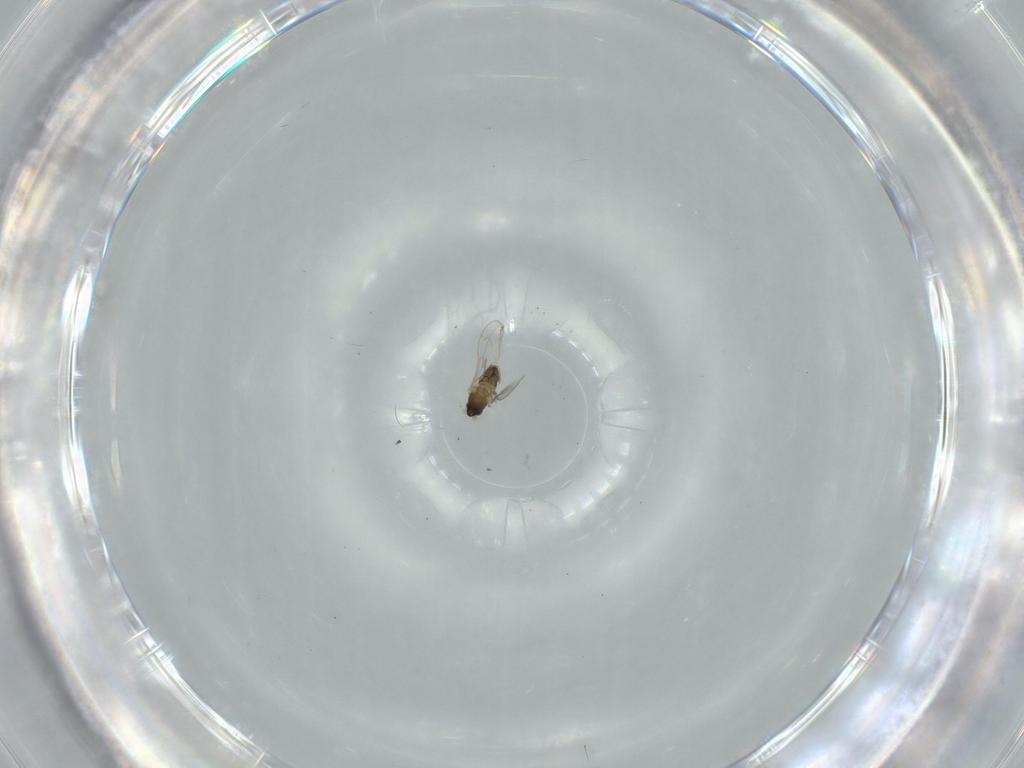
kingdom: Animalia
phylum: Arthropoda
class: Insecta
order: Diptera
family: Cecidomyiidae
